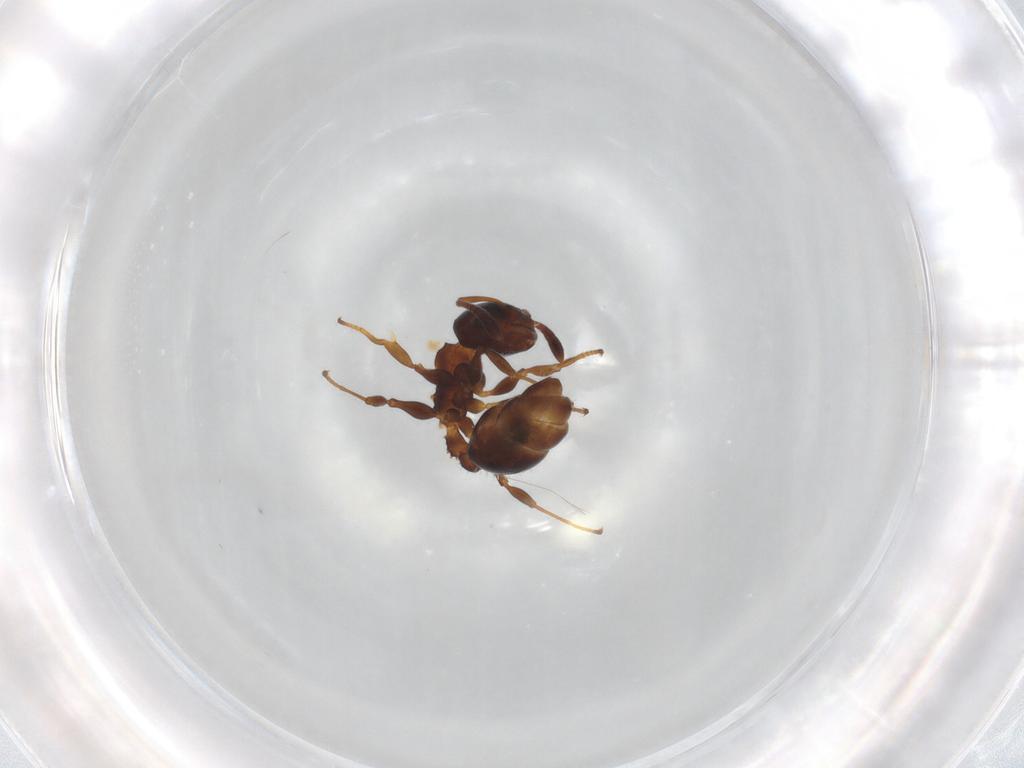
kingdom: Animalia
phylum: Arthropoda
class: Insecta
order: Hymenoptera
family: Formicidae
